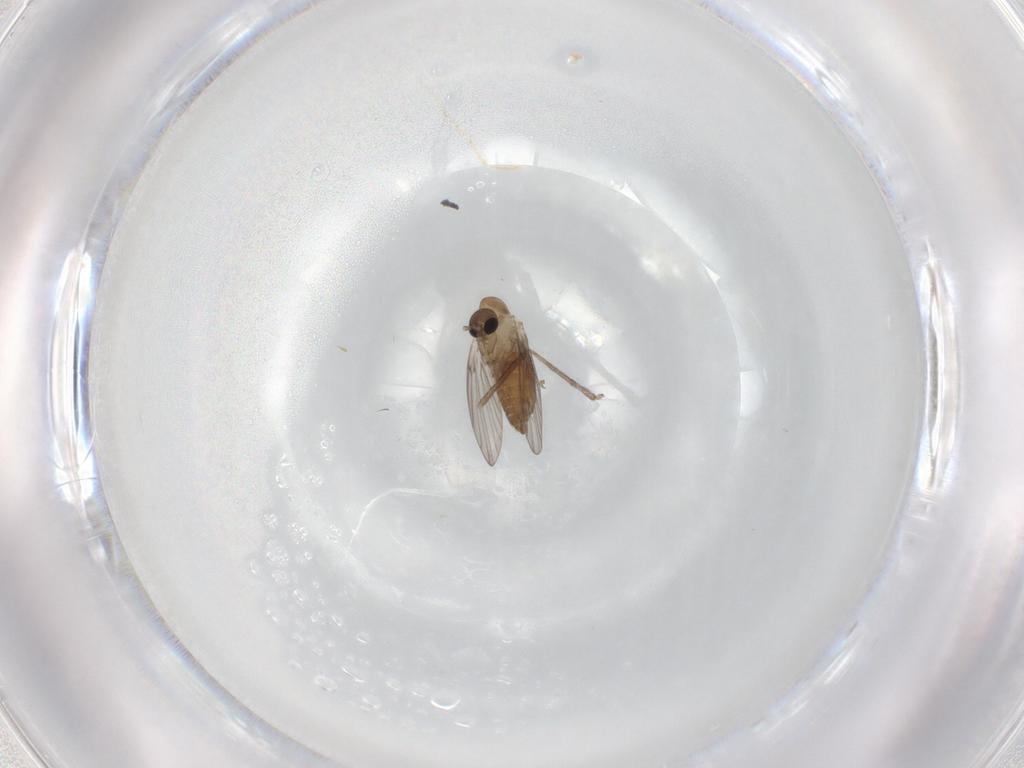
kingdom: Animalia
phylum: Arthropoda
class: Insecta
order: Diptera
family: Cecidomyiidae
